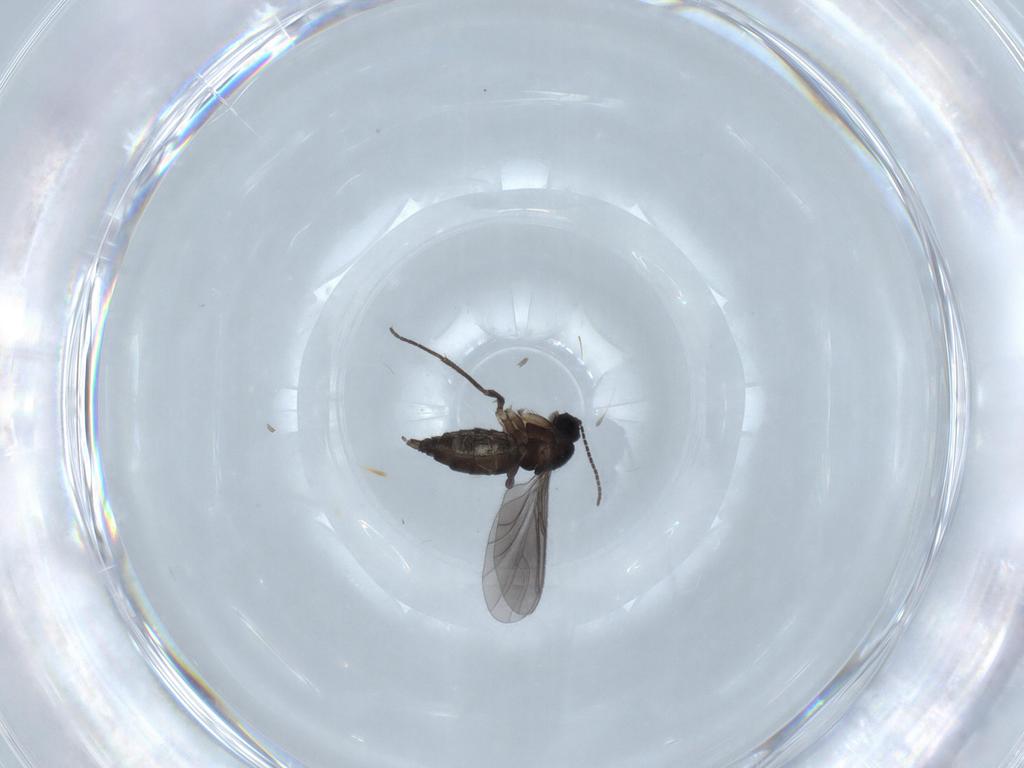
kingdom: Animalia
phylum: Arthropoda
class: Insecta
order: Diptera
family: Sciaridae
